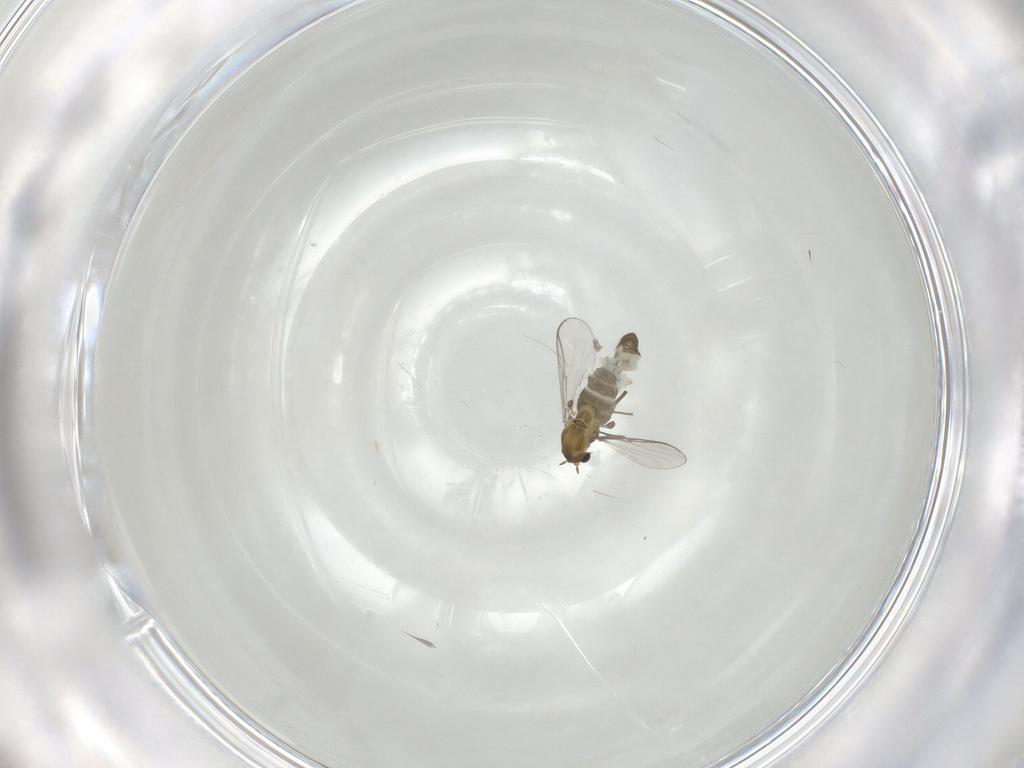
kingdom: Animalia
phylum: Arthropoda
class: Insecta
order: Diptera
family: Chironomidae
